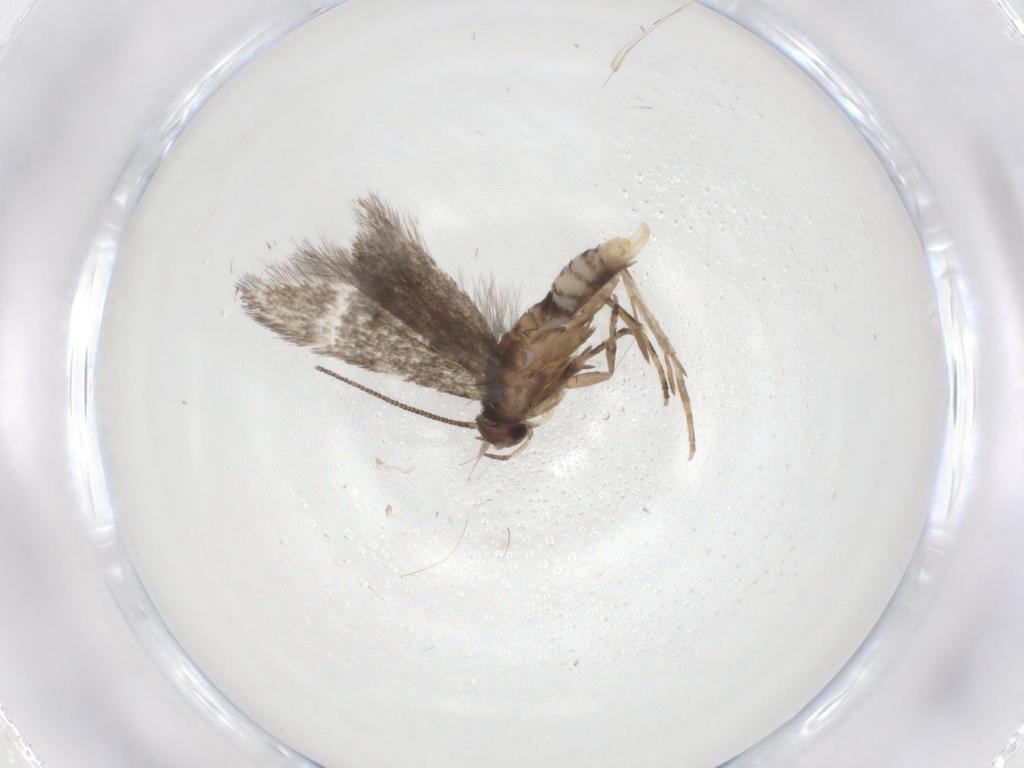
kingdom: Animalia
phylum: Arthropoda
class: Insecta
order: Lepidoptera
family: Elachistidae
